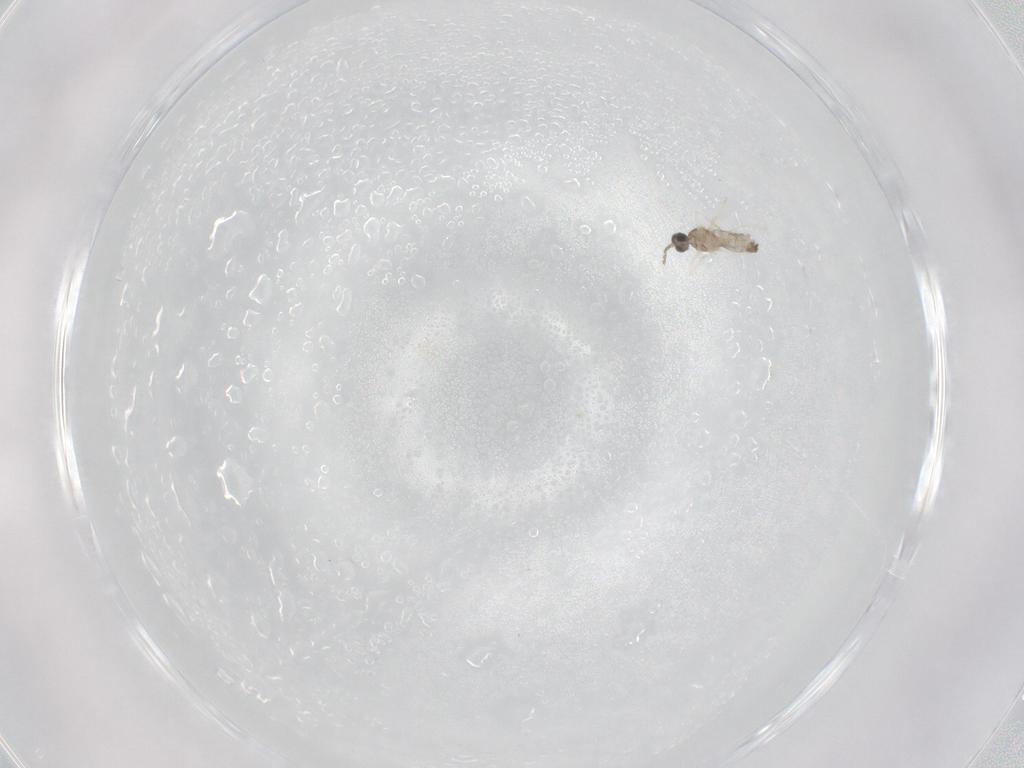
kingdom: Animalia
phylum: Arthropoda
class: Insecta
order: Diptera
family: Cecidomyiidae
